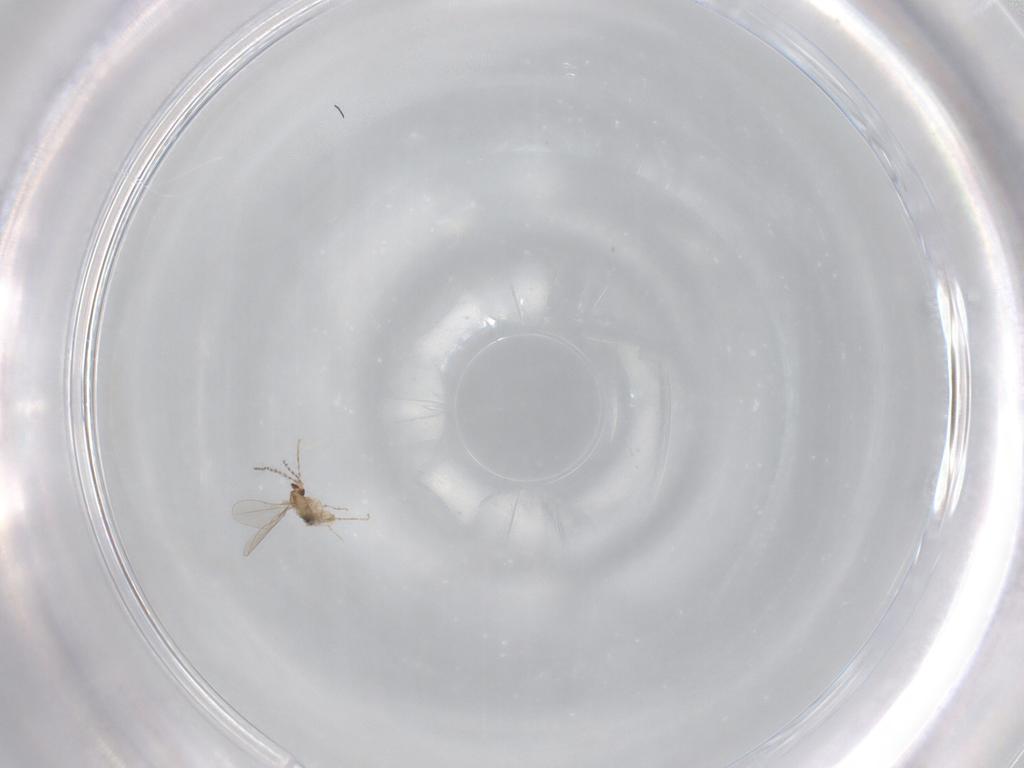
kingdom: Animalia
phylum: Arthropoda
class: Insecta
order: Diptera
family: Cecidomyiidae
